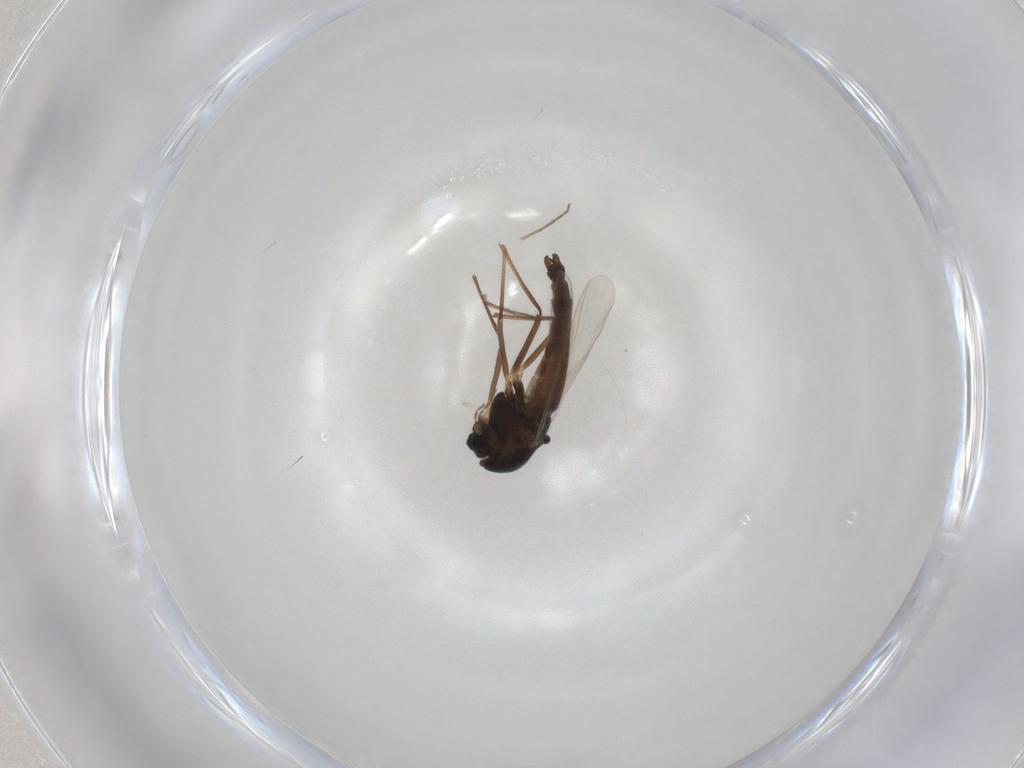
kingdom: Animalia
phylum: Arthropoda
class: Insecta
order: Diptera
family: Chironomidae
